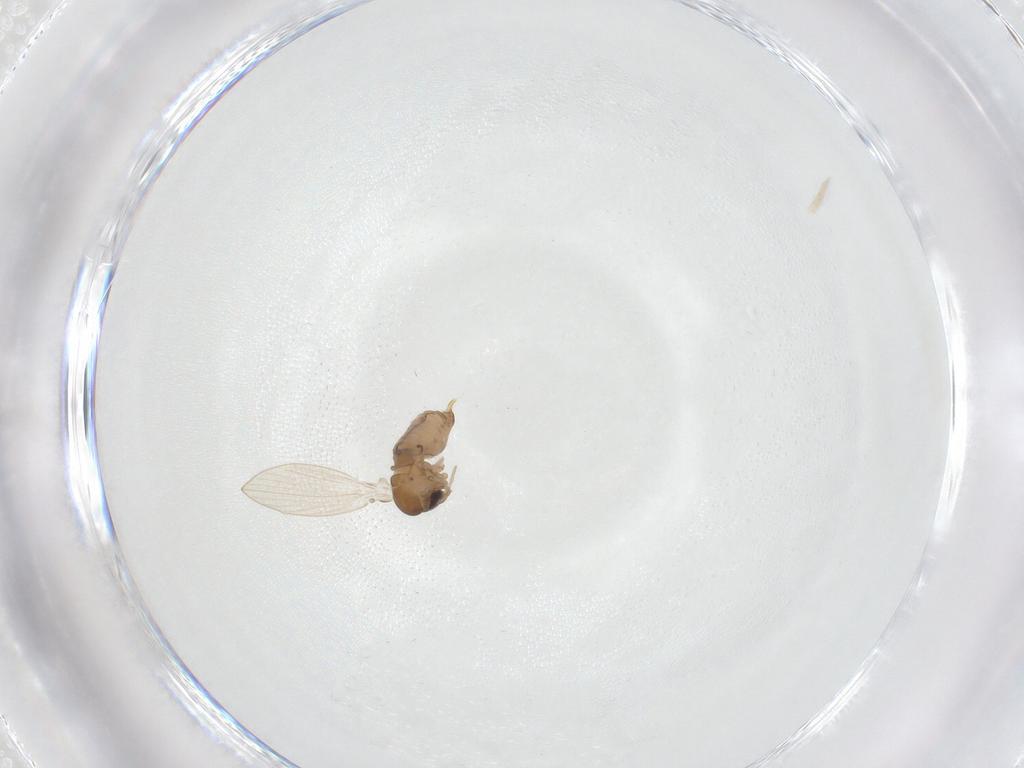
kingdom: Animalia
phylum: Arthropoda
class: Insecta
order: Diptera
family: Psychodidae
